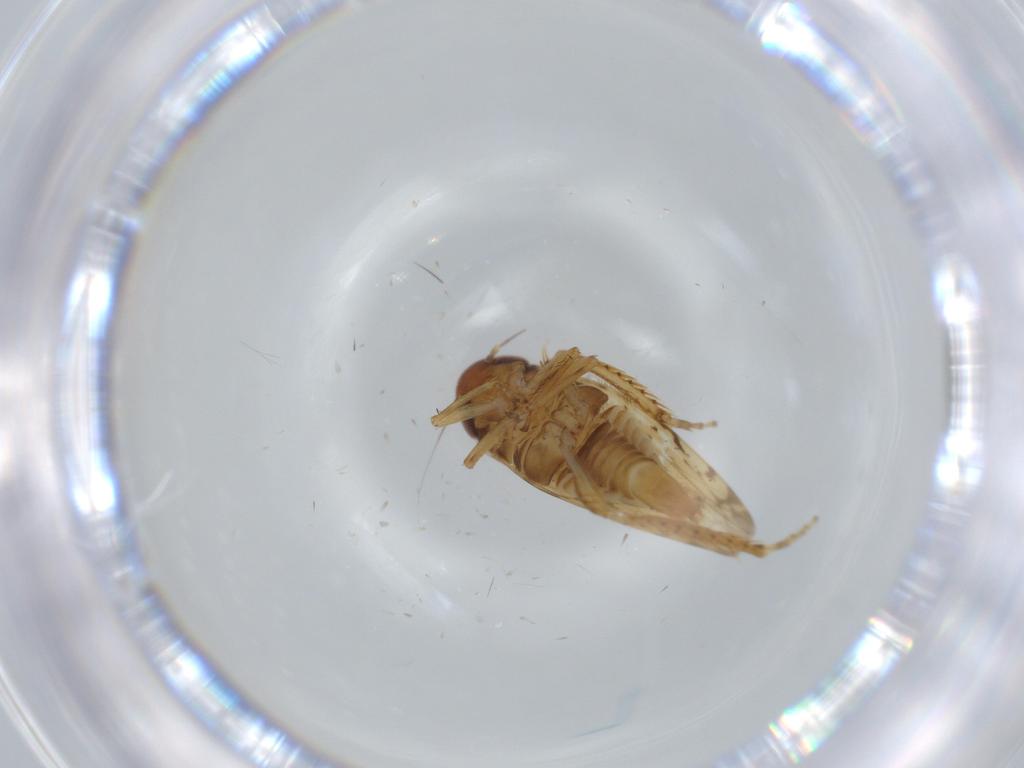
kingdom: Animalia
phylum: Arthropoda
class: Insecta
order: Hemiptera
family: Cicadellidae
